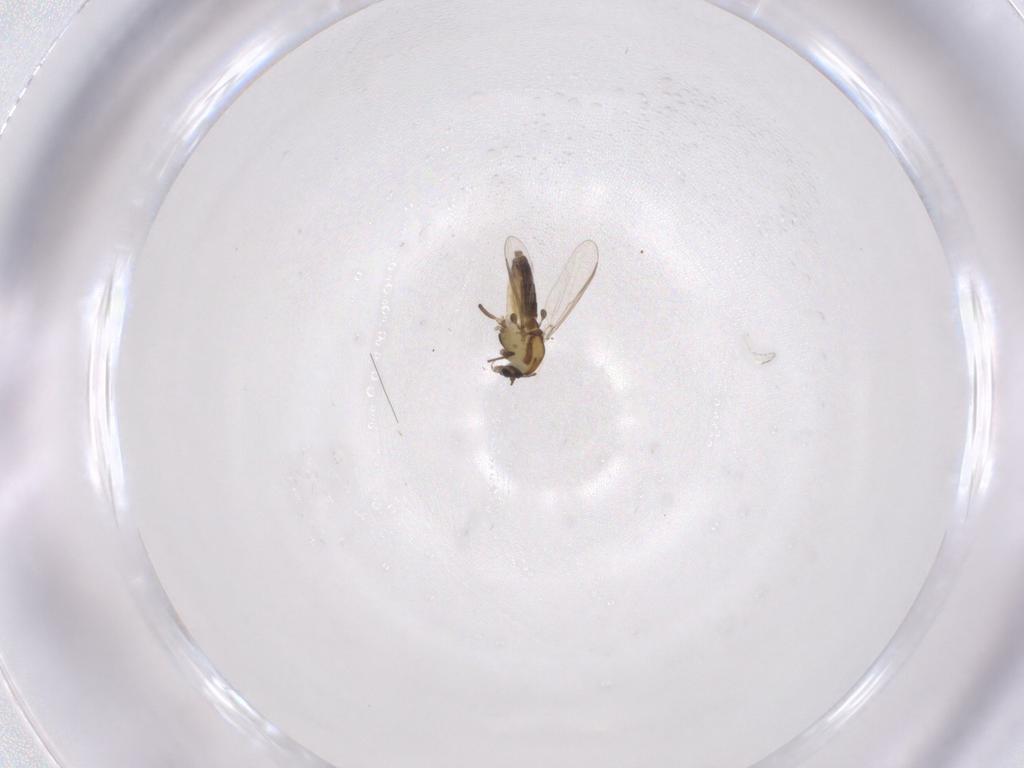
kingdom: Animalia
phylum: Arthropoda
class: Insecta
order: Diptera
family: Chironomidae
